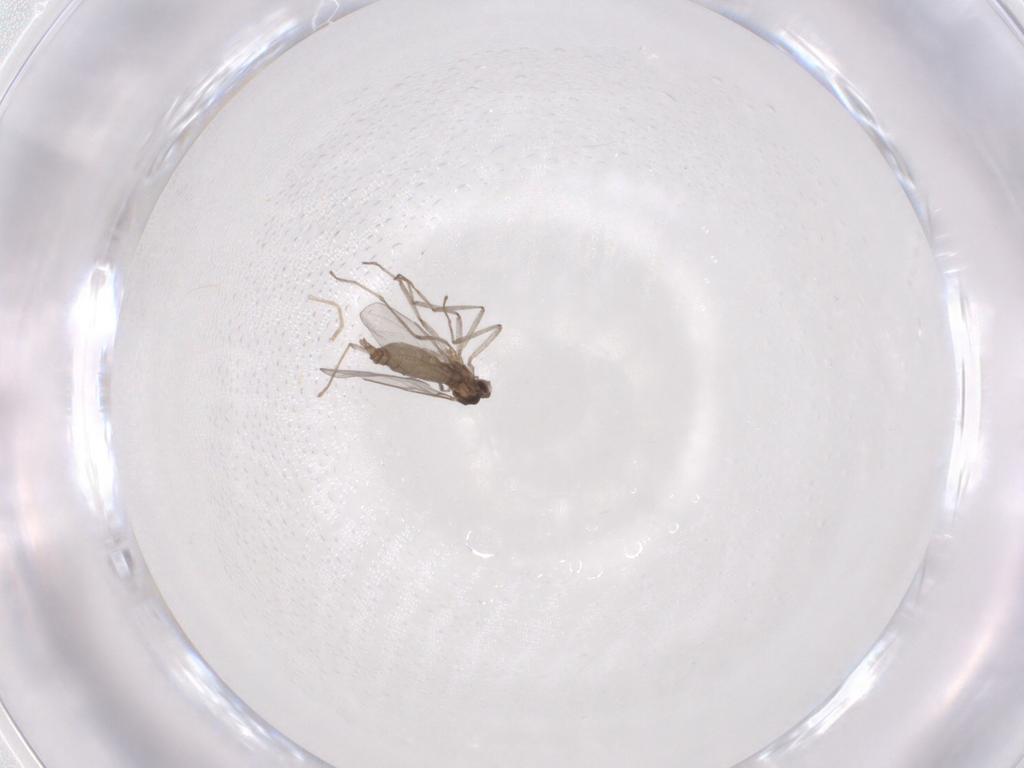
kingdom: Animalia
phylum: Arthropoda
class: Insecta
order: Diptera
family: Cecidomyiidae
